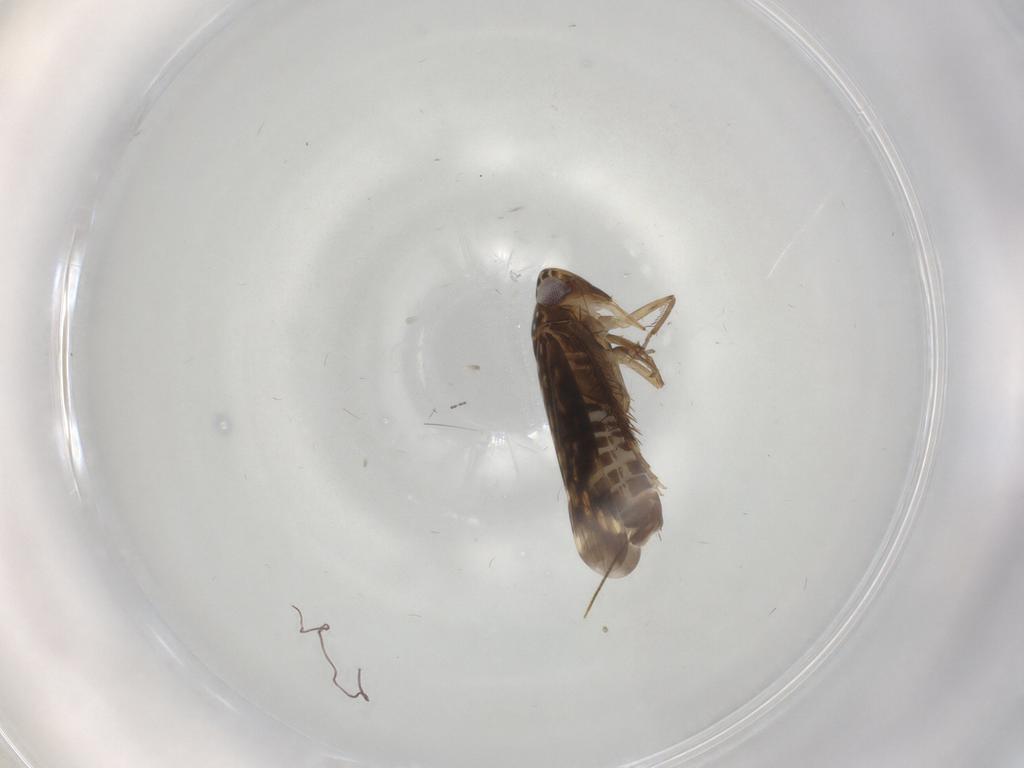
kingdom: Animalia
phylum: Arthropoda
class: Insecta
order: Hemiptera
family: Cicadellidae
